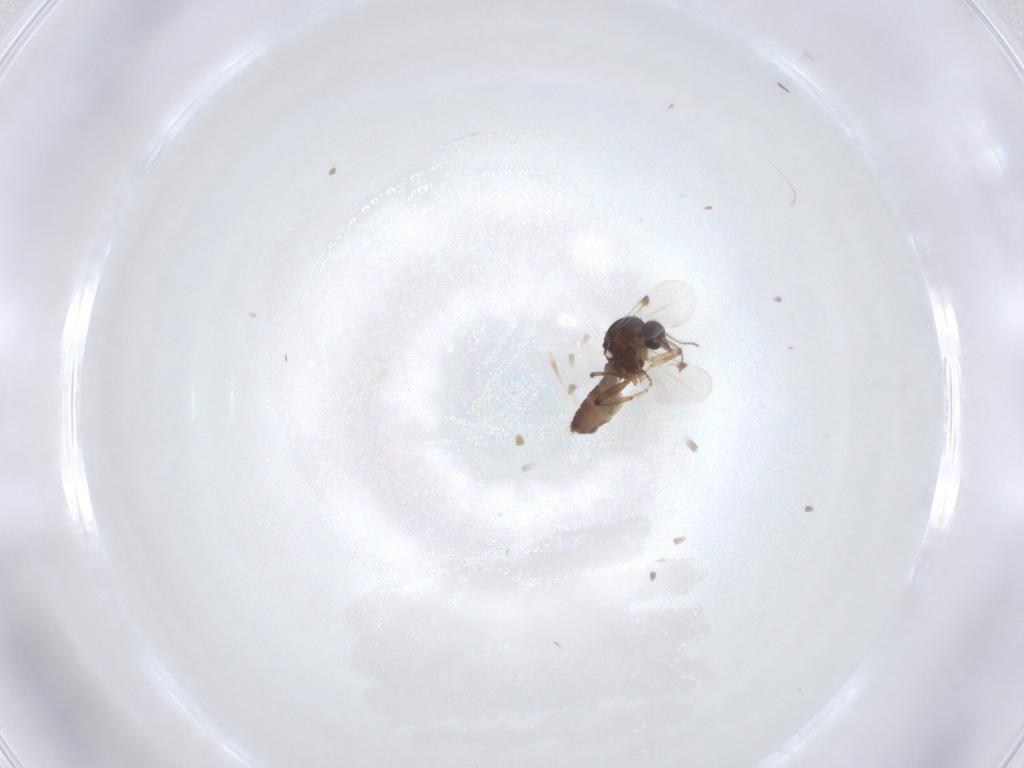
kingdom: Animalia
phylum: Arthropoda
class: Insecta
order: Diptera
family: Ceratopogonidae
